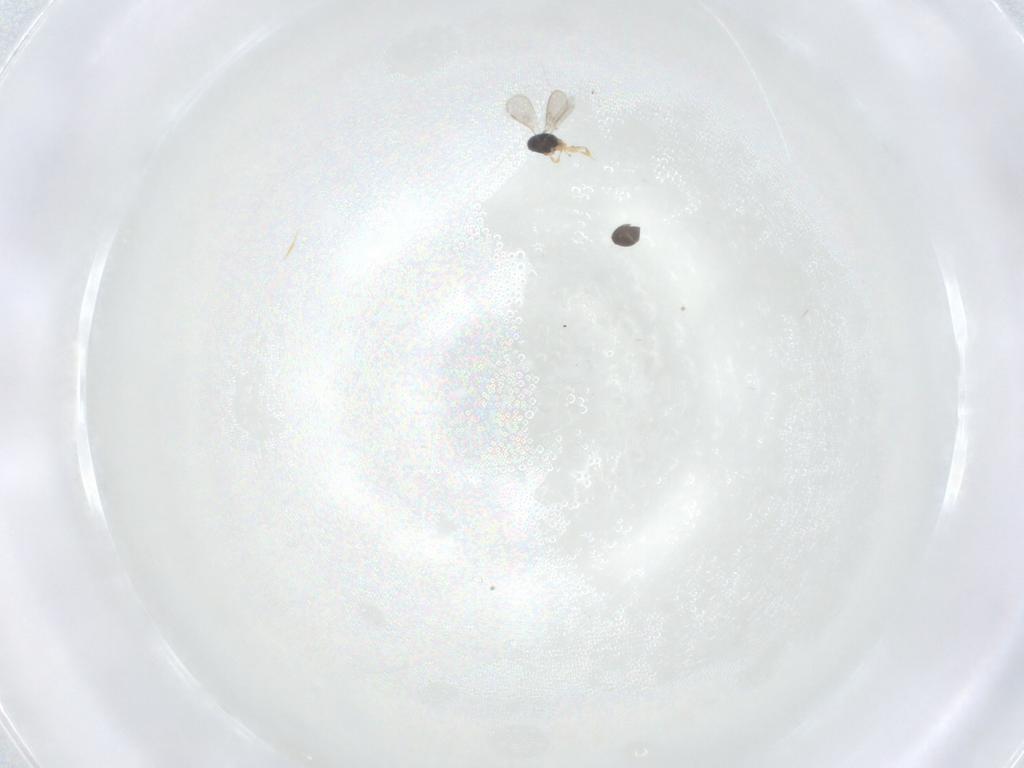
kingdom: Animalia
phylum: Arthropoda
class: Insecta
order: Hymenoptera
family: Scelionidae
